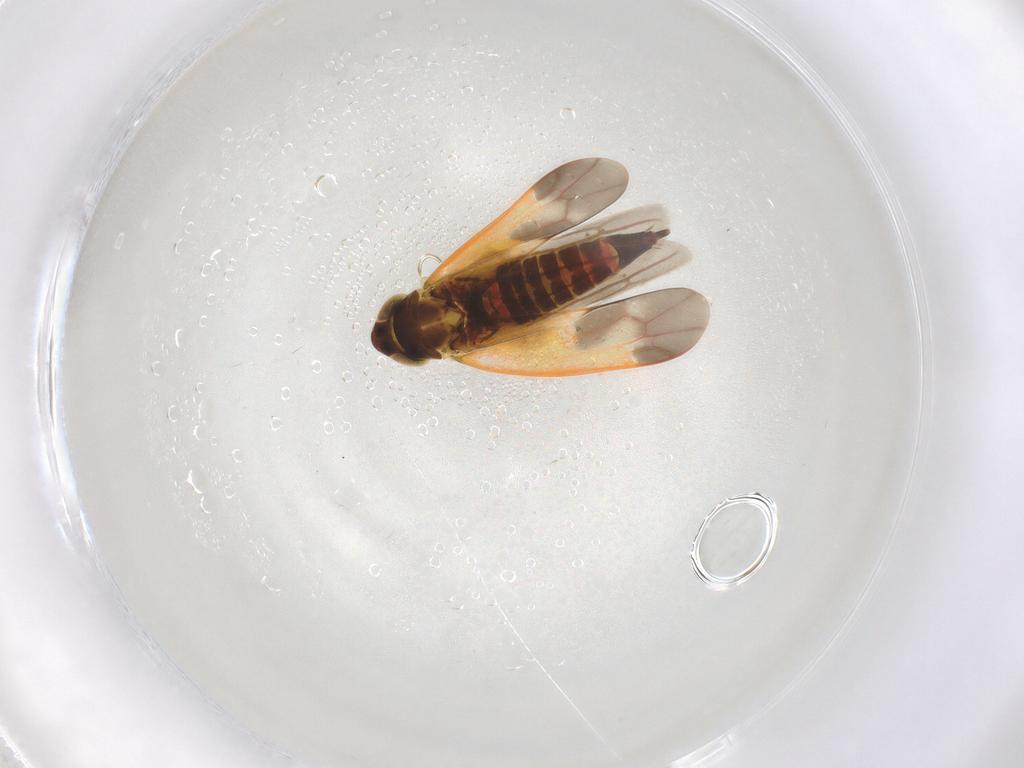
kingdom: Animalia
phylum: Arthropoda
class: Insecta
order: Hemiptera
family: Cicadellidae
